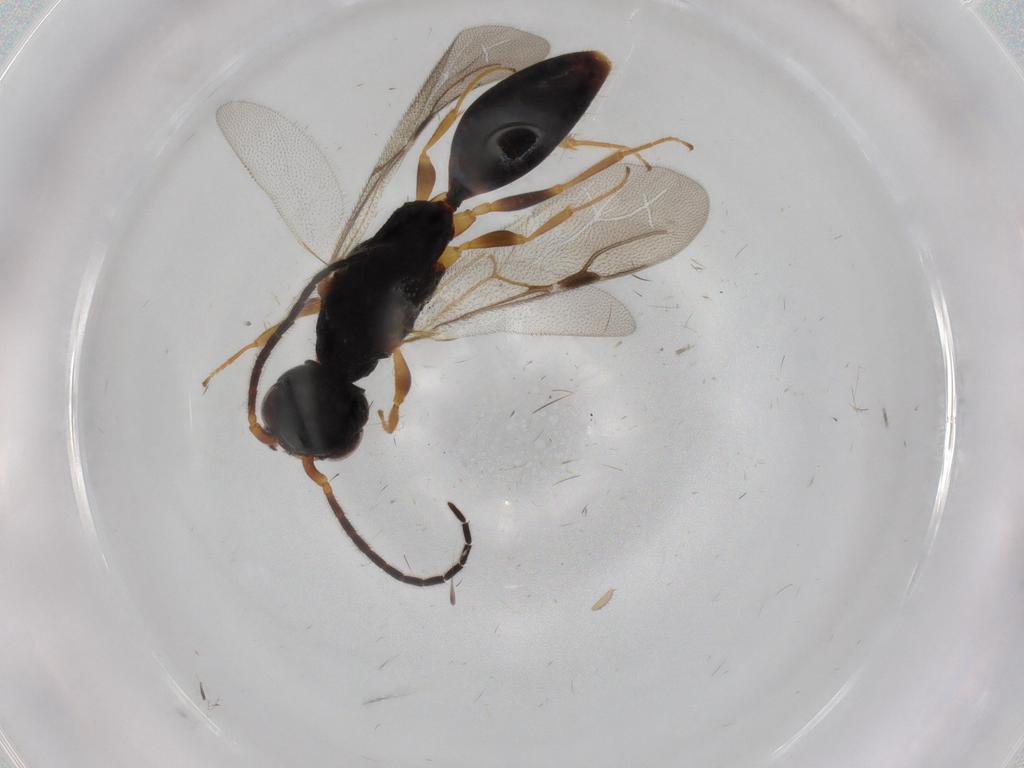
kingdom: Animalia
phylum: Arthropoda
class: Insecta
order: Hymenoptera
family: Bethylidae
